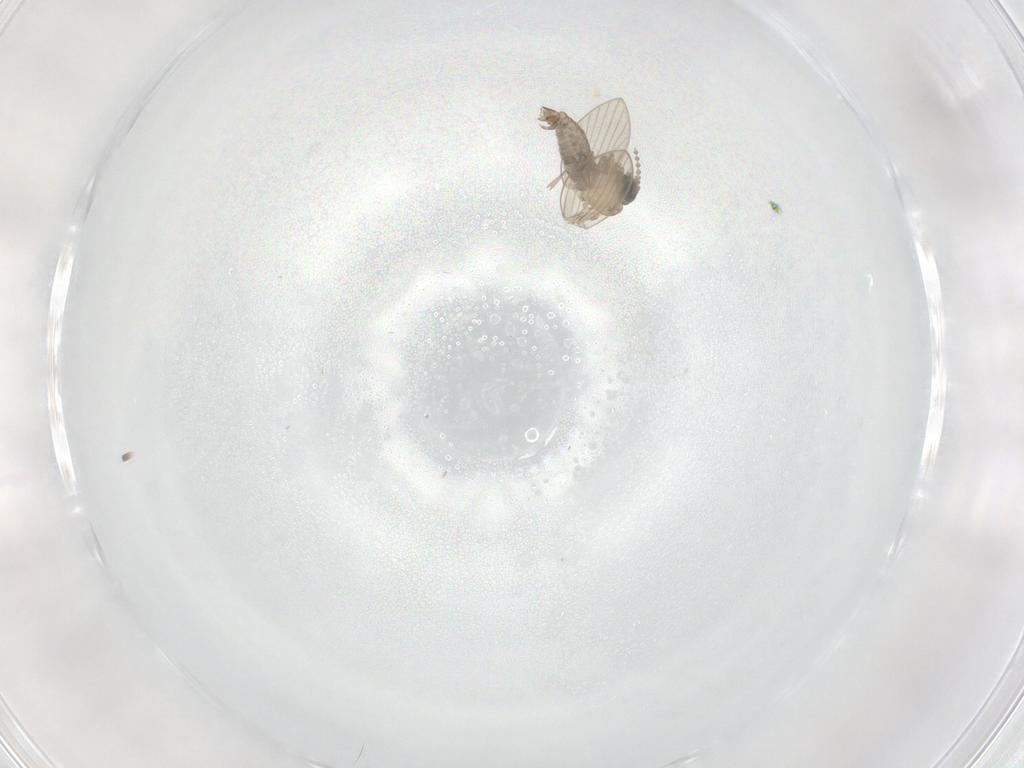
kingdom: Animalia
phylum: Arthropoda
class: Insecta
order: Diptera
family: Psychodidae
